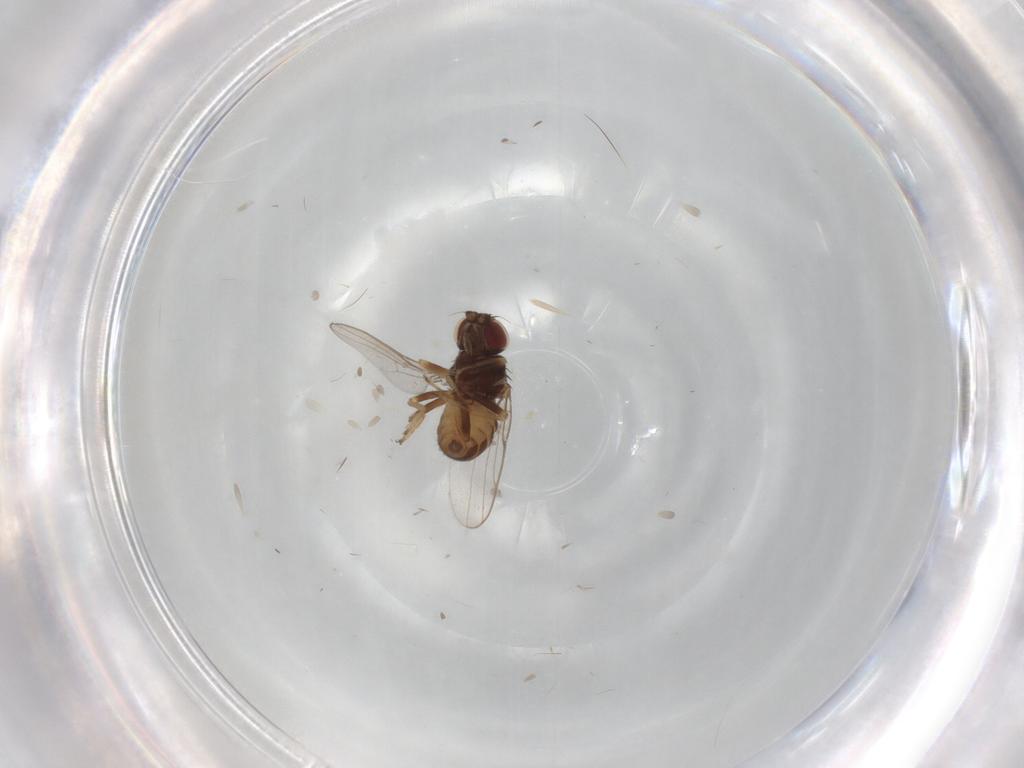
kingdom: Animalia
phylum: Arthropoda
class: Insecta
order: Diptera
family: Chloropidae
